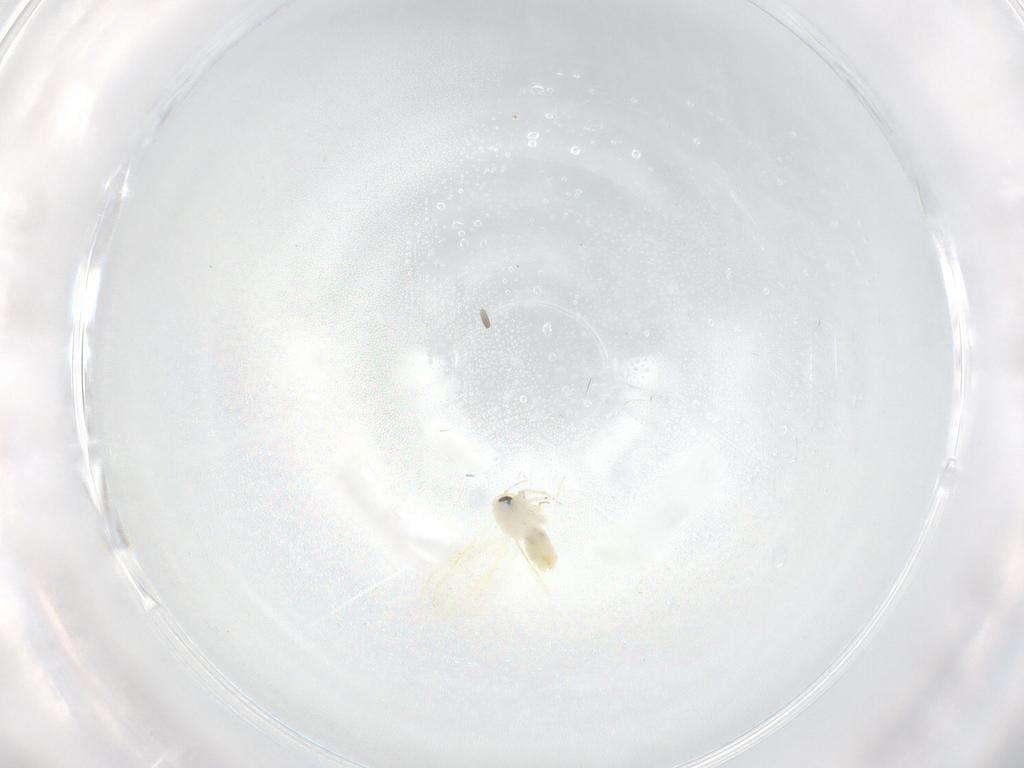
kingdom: Animalia
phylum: Arthropoda
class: Insecta
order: Hemiptera
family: Aleyrodidae
